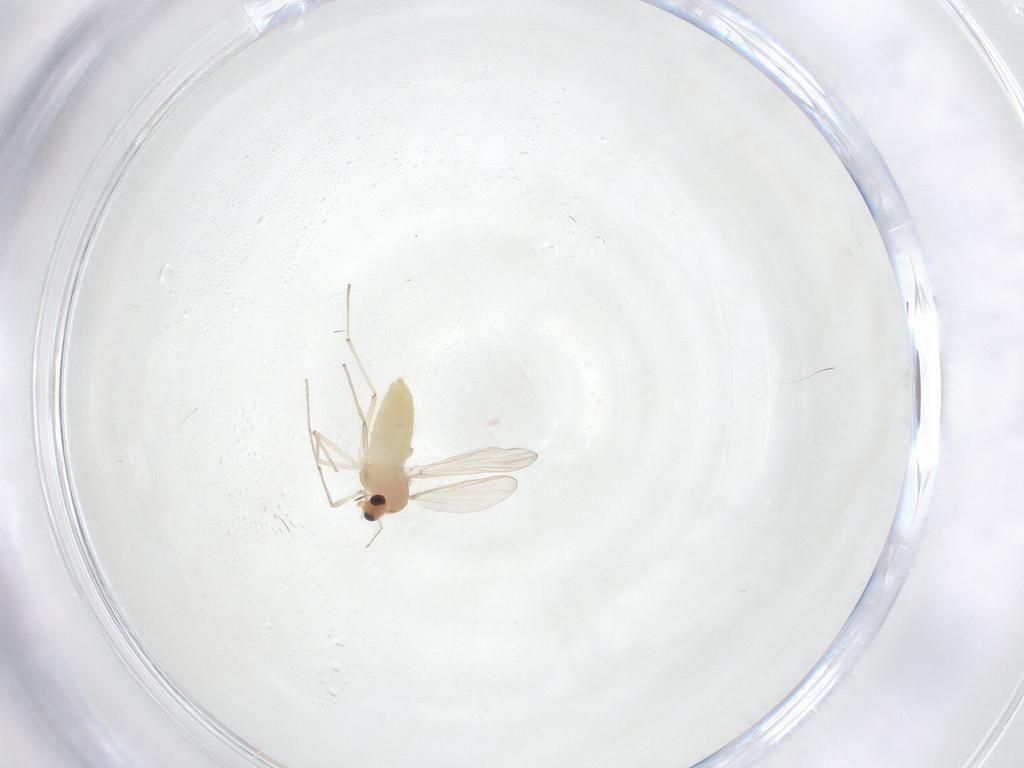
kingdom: Animalia
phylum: Arthropoda
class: Insecta
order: Diptera
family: Chironomidae
